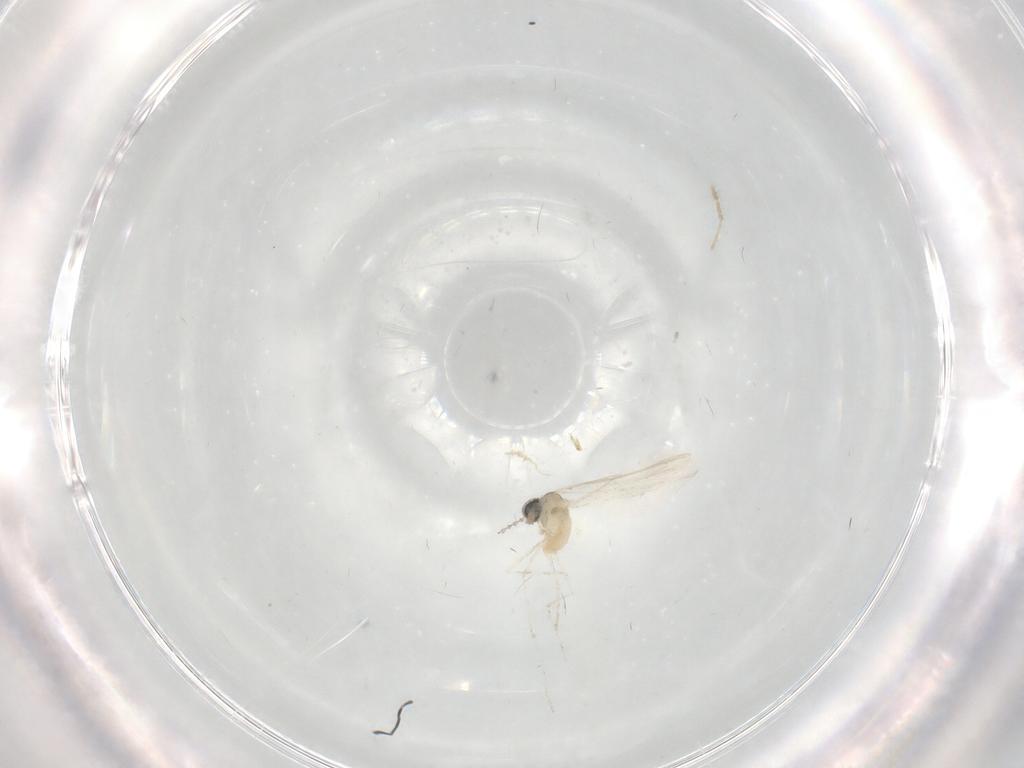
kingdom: Animalia
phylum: Arthropoda
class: Insecta
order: Diptera
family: Cecidomyiidae
